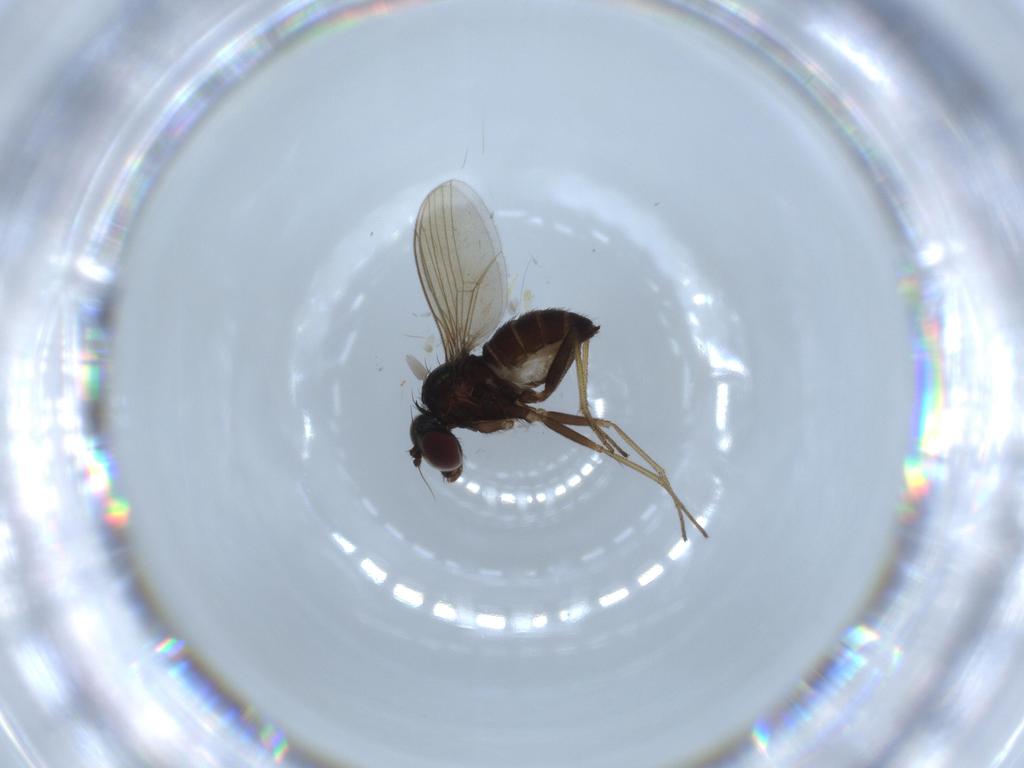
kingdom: Animalia
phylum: Arthropoda
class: Insecta
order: Diptera
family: Dolichopodidae
